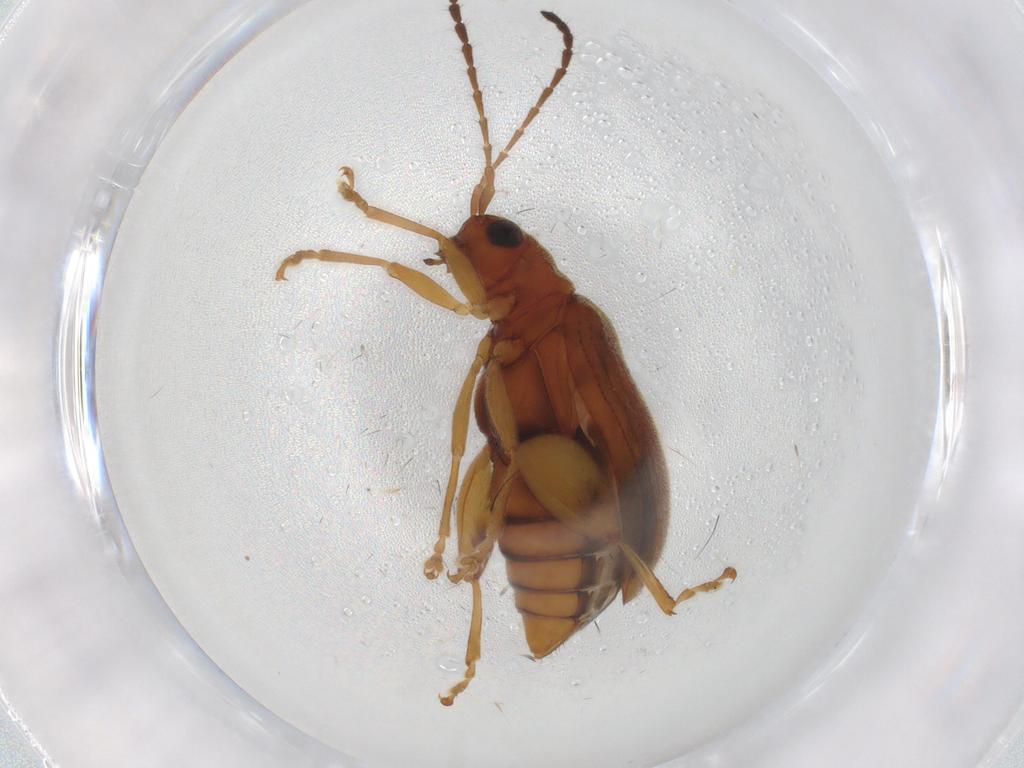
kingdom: Animalia
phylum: Arthropoda
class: Insecta
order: Coleoptera
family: Chrysomelidae
